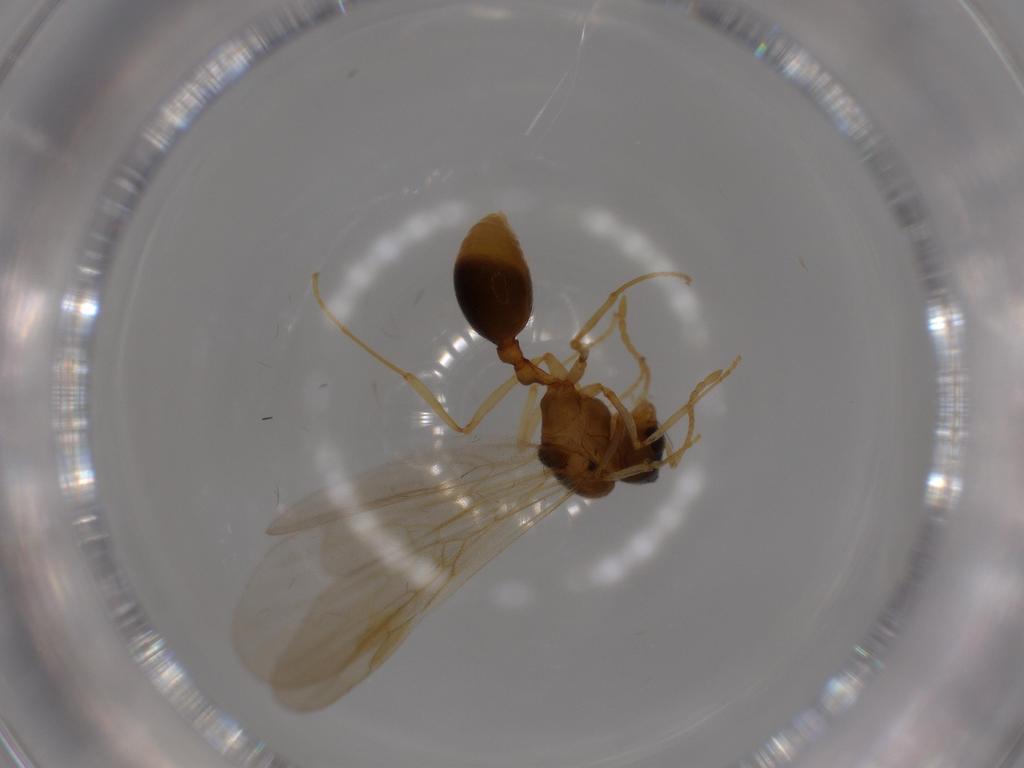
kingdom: Animalia
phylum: Arthropoda
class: Insecta
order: Hymenoptera
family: Formicidae
